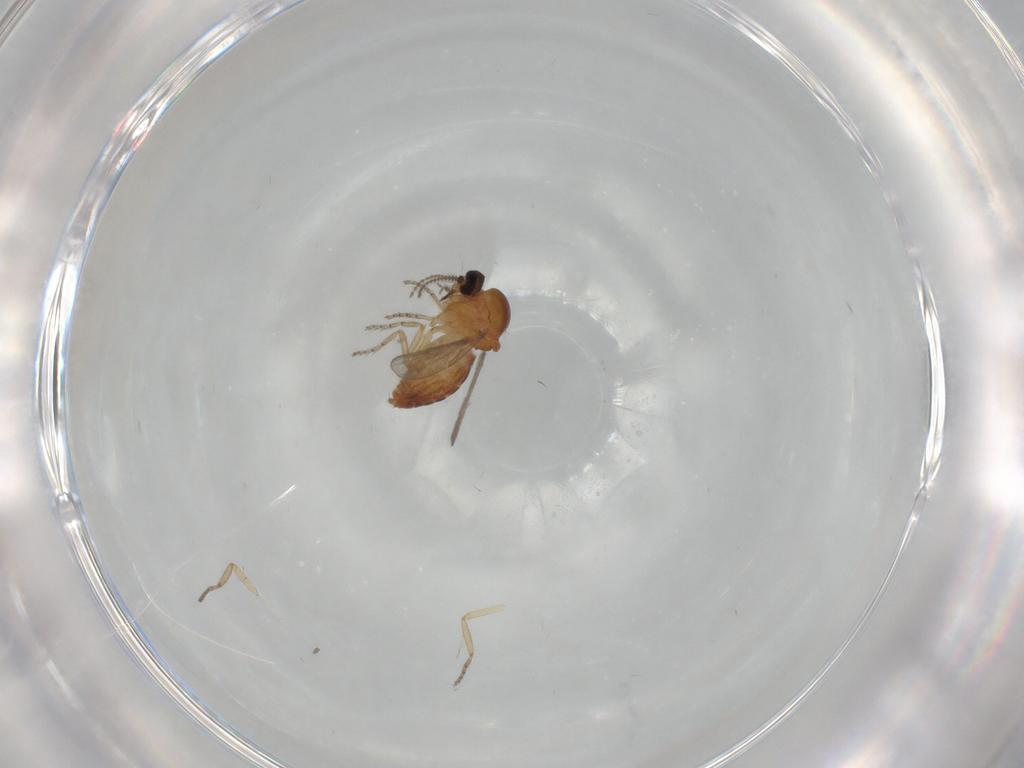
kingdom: Animalia
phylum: Arthropoda
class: Insecta
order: Diptera
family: Ceratopogonidae
